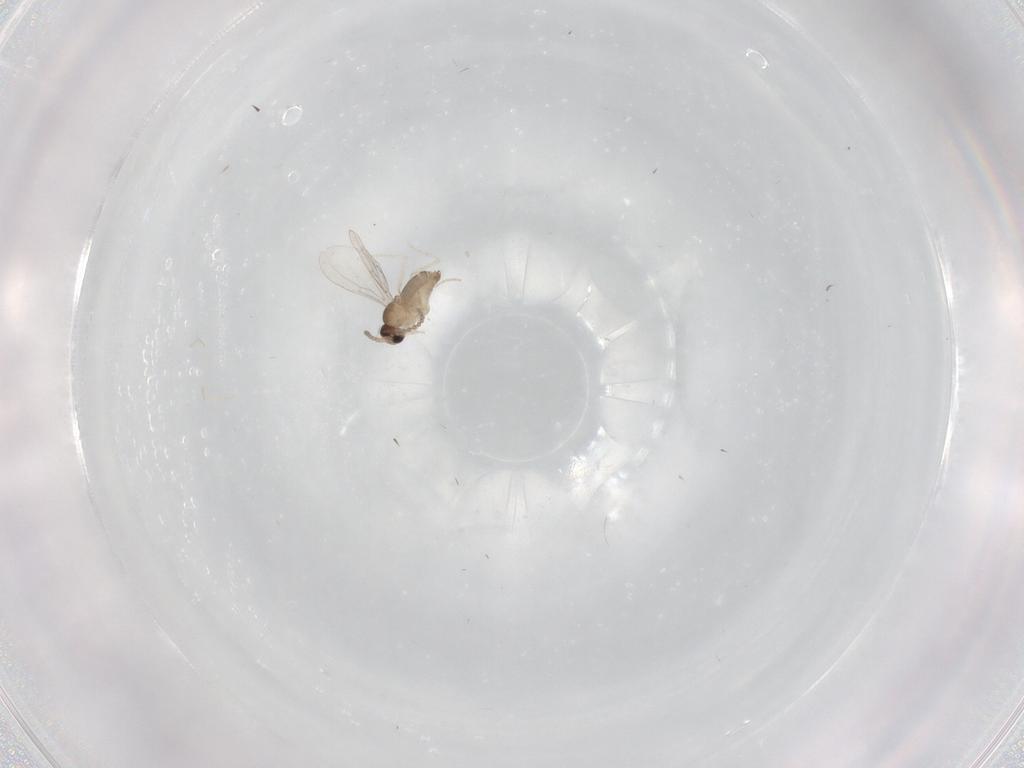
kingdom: Animalia
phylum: Arthropoda
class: Insecta
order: Diptera
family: Cecidomyiidae
